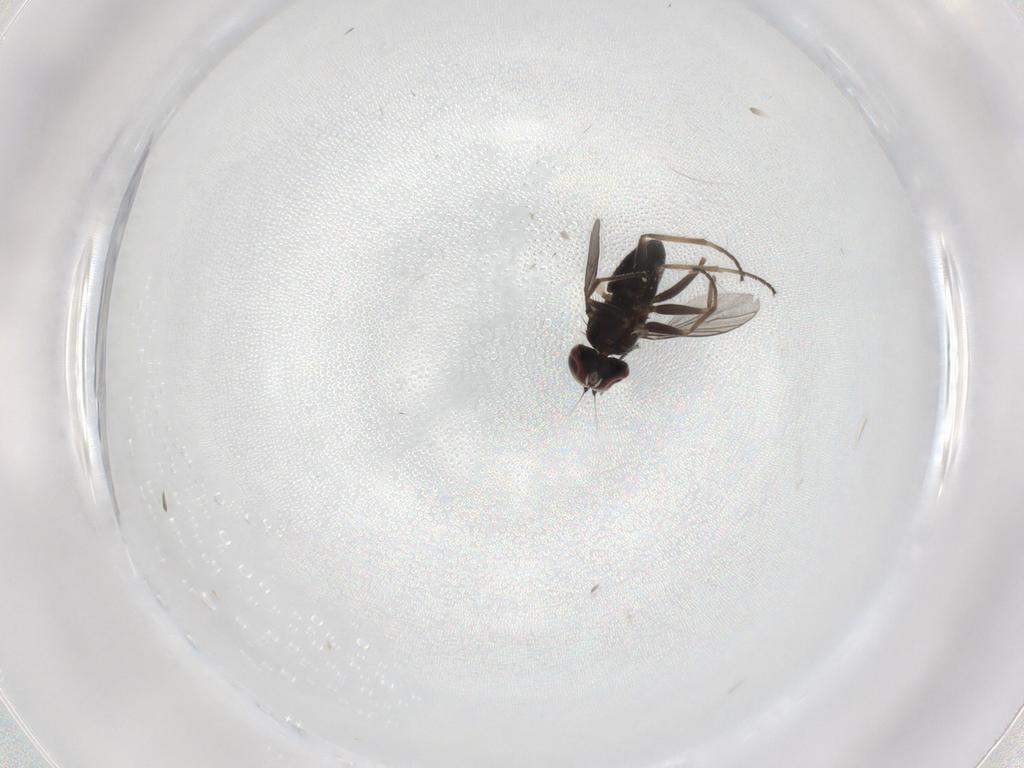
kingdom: Animalia
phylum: Arthropoda
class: Insecta
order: Diptera
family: Dolichopodidae
